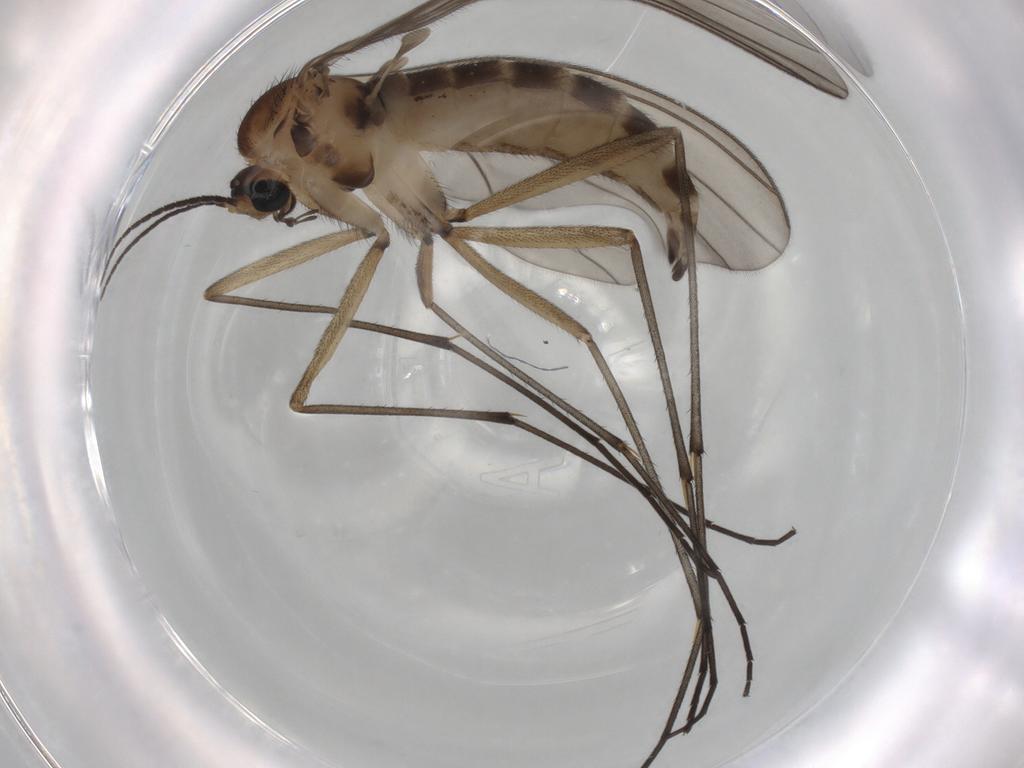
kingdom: Animalia
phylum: Arthropoda
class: Insecta
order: Diptera
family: Sciaridae
